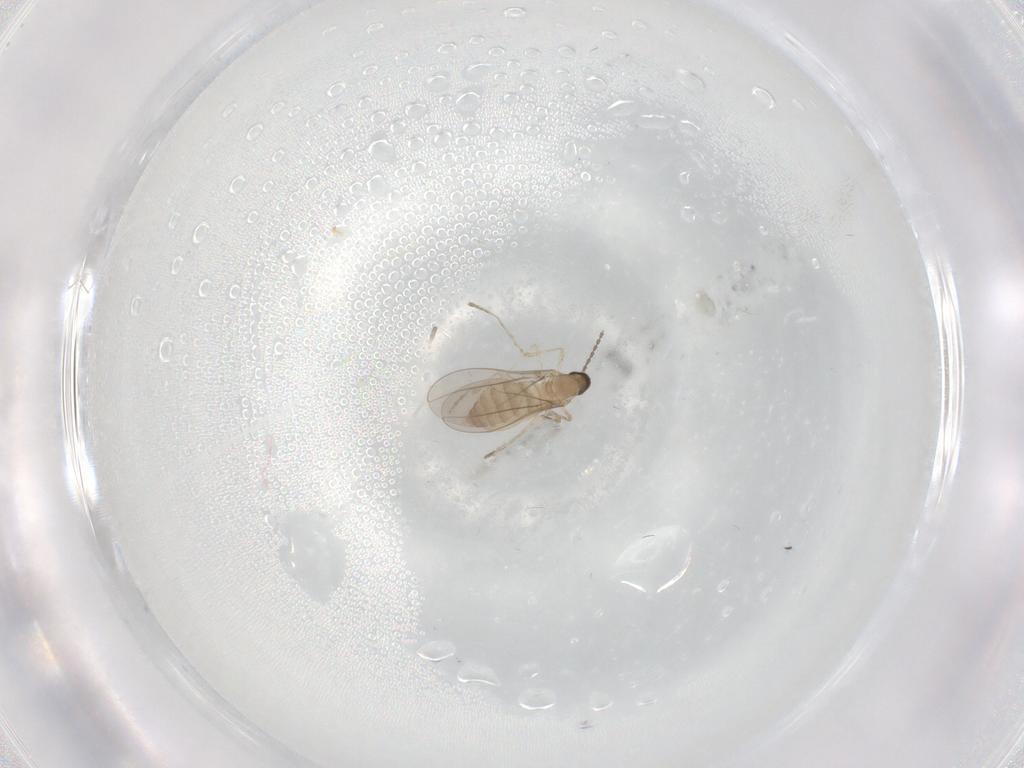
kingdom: Animalia
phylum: Arthropoda
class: Insecta
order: Diptera
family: Cecidomyiidae
